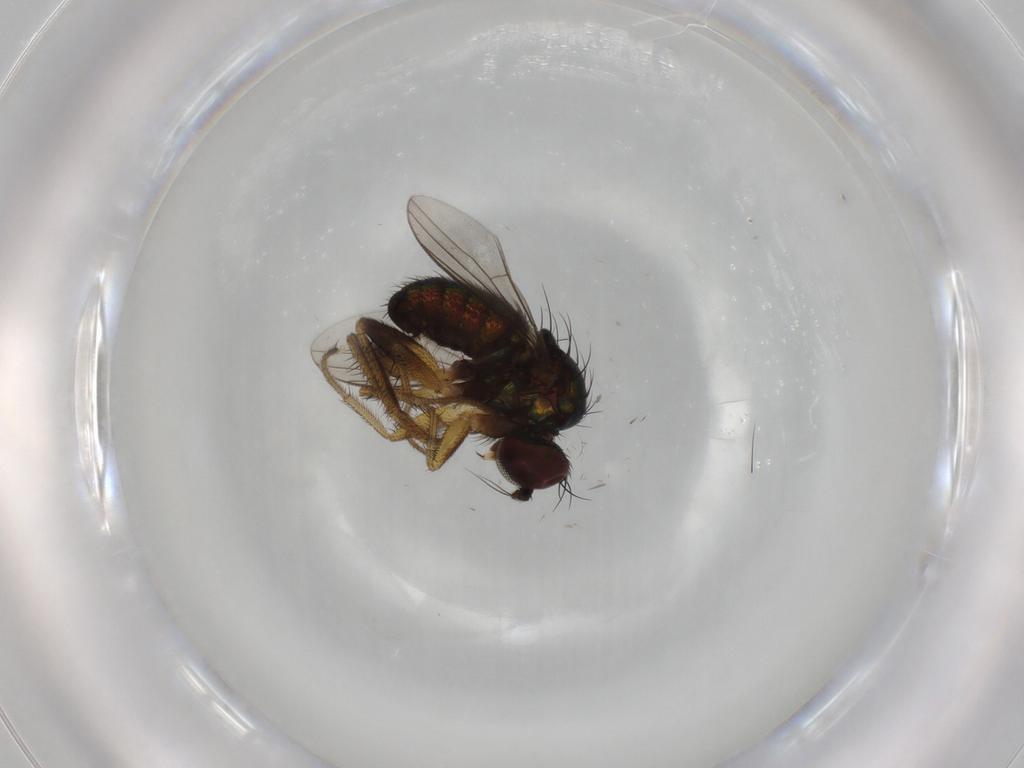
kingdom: Animalia
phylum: Arthropoda
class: Insecta
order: Diptera
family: Dolichopodidae
